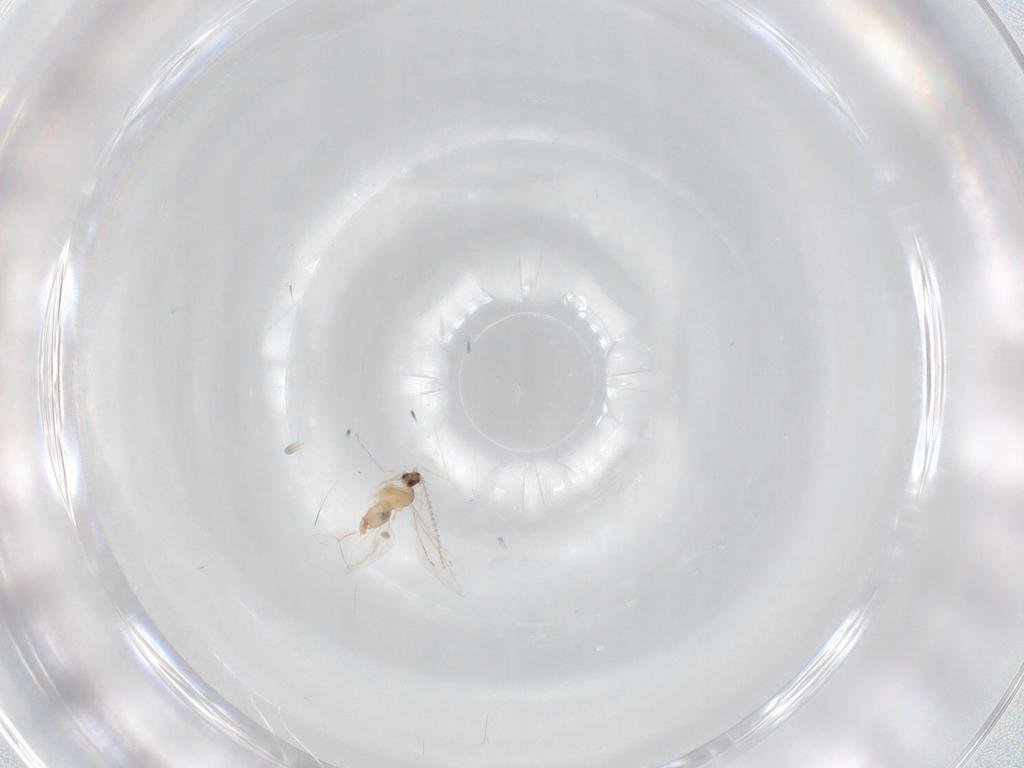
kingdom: Animalia
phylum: Arthropoda
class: Insecta
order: Diptera
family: Cecidomyiidae
